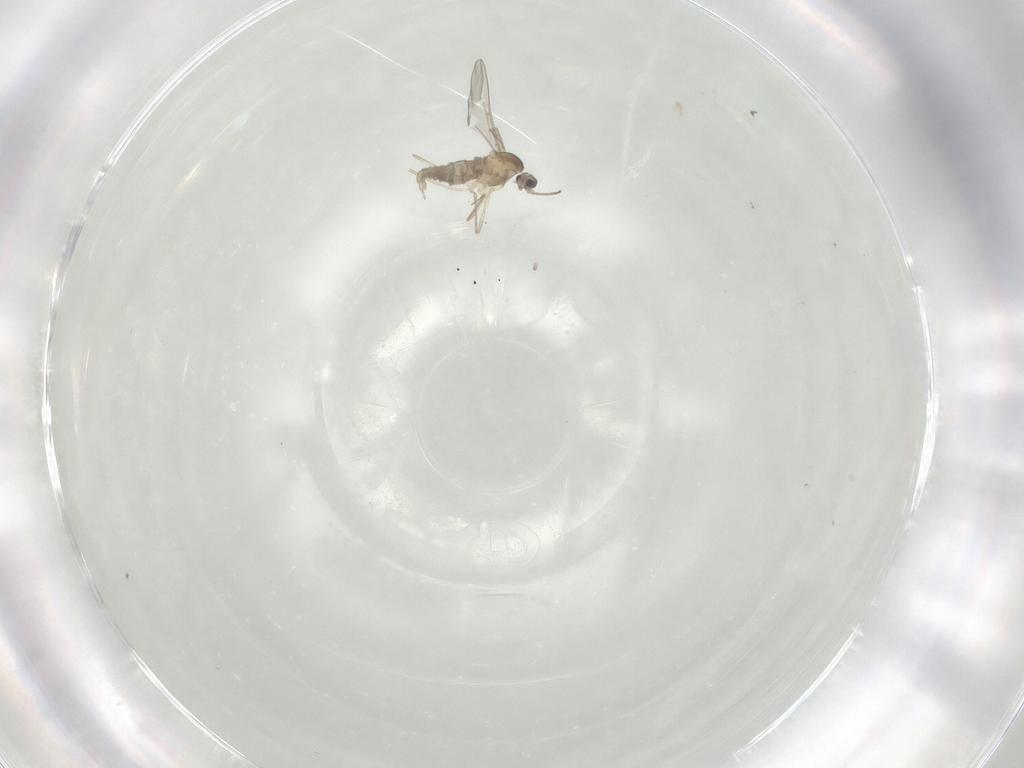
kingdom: Animalia
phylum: Arthropoda
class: Insecta
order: Diptera
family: Cecidomyiidae
